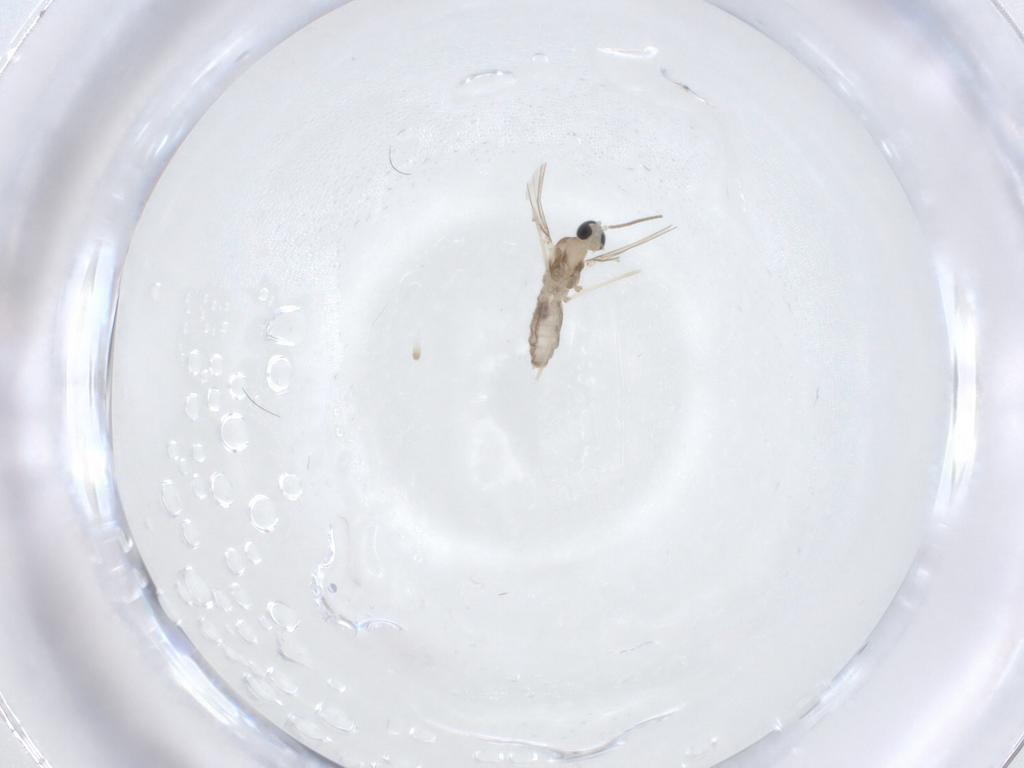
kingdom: Animalia
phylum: Arthropoda
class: Insecta
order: Diptera
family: Cecidomyiidae
